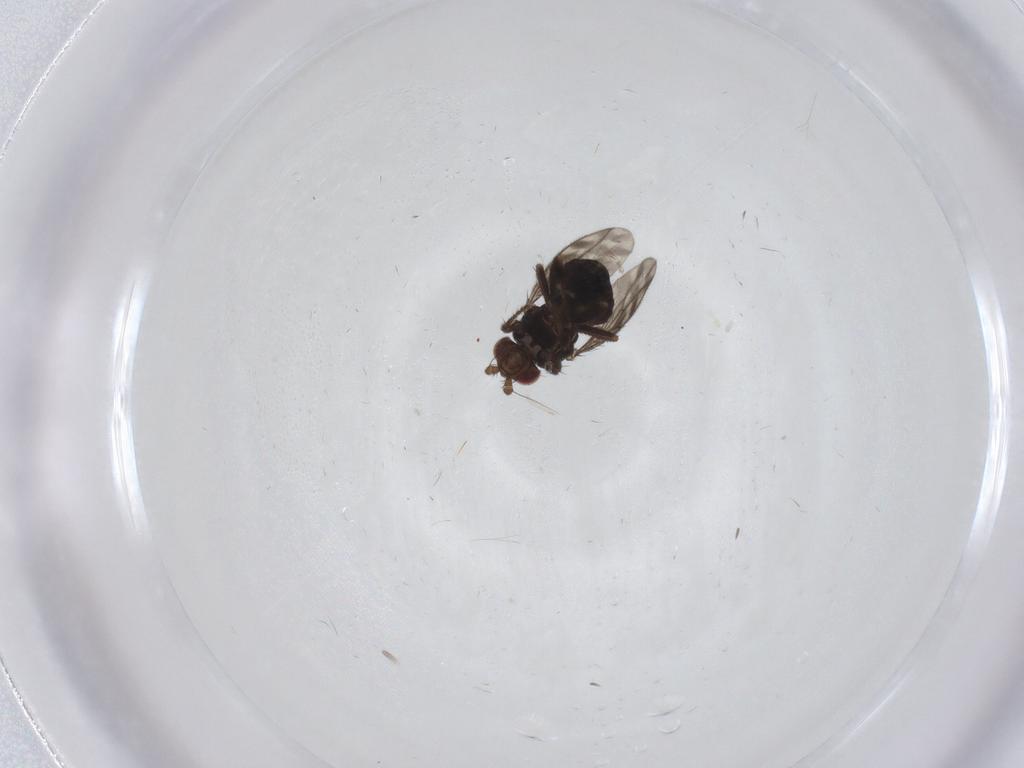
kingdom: Animalia
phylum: Arthropoda
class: Insecta
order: Diptera
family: Sphaeroceridae
